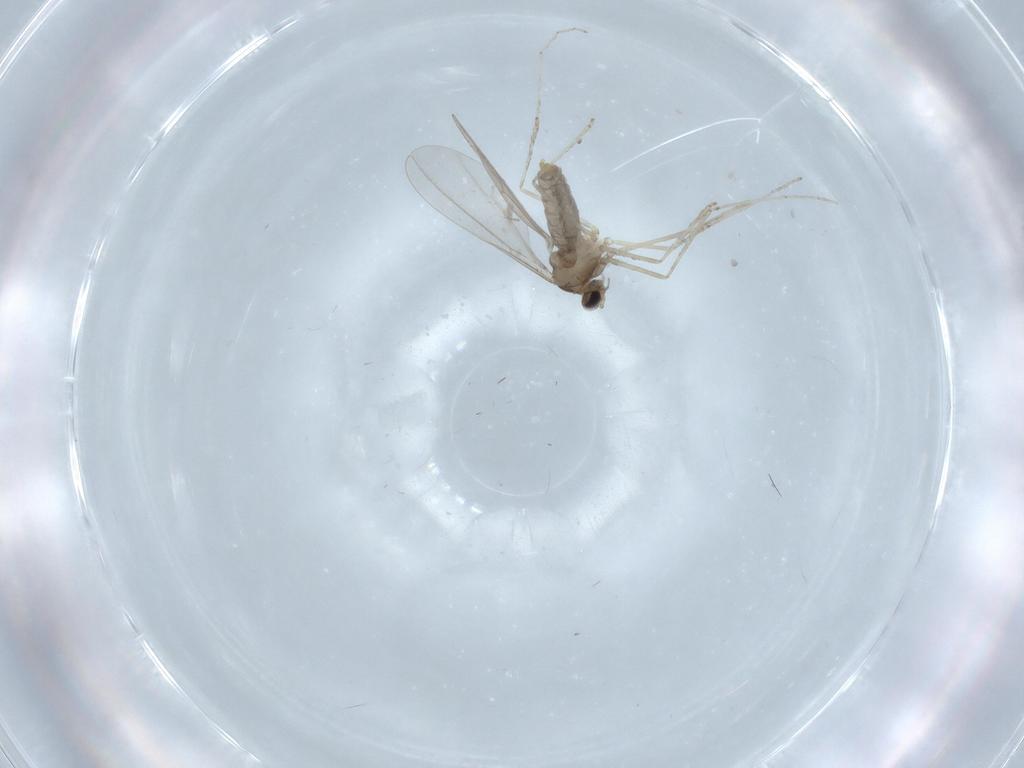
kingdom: Animalia
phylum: Arthropoda
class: Insecta
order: Diptera
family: Cecidomyiidae
